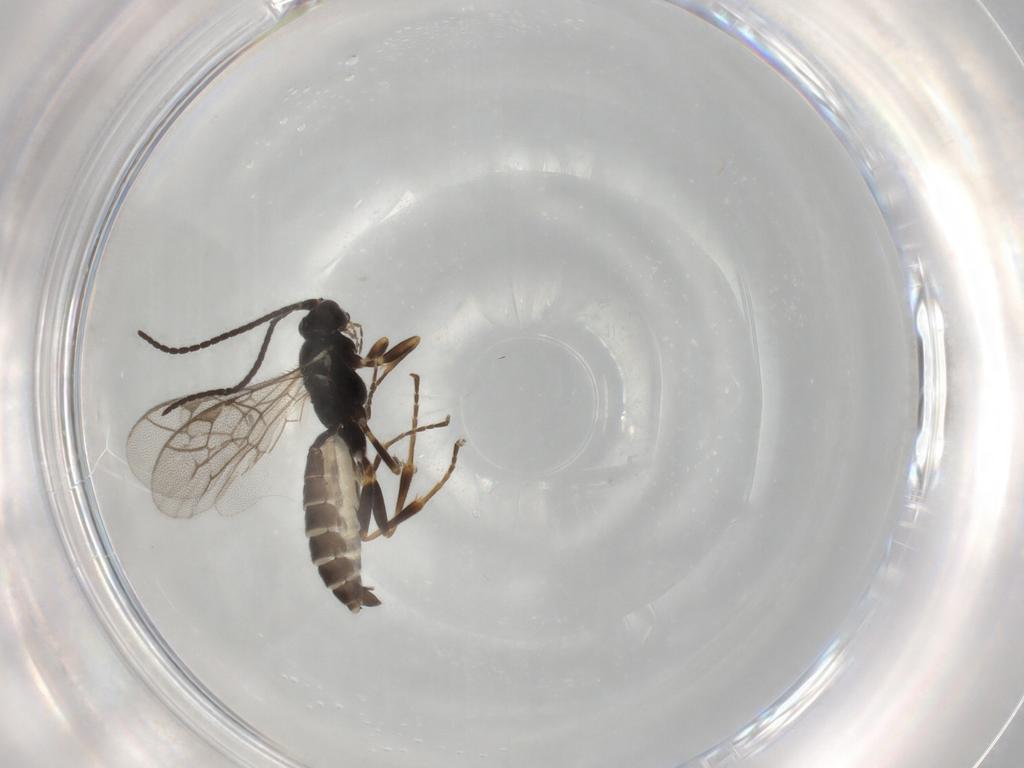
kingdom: Animalia
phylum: Arthropoda
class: Insecta
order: Hymenoptera
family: Ichneumonidae
